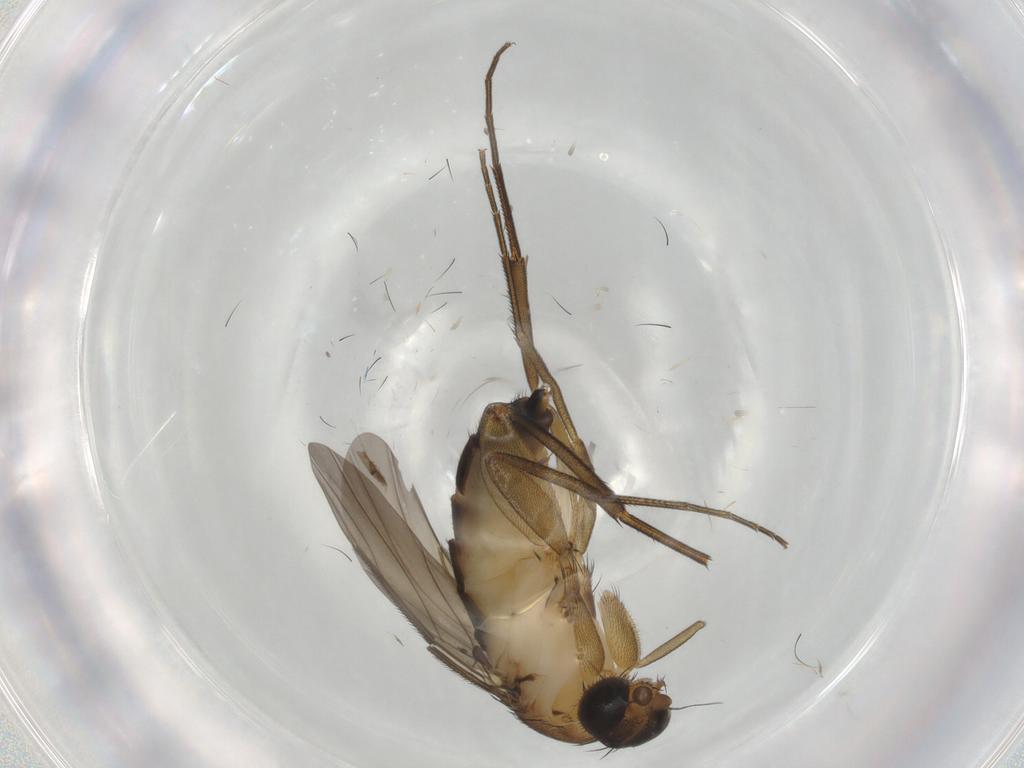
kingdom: Animalia
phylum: Arthropoda
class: Insecta
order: Diptera
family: Phoridae
